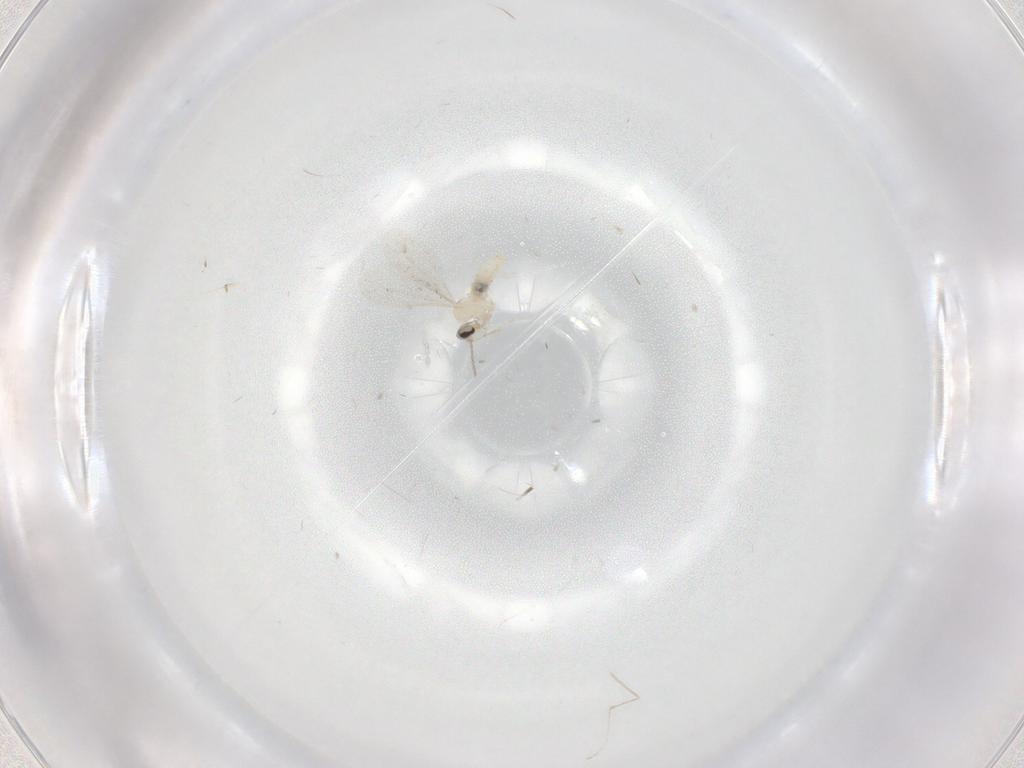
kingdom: Animalia
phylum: Arthropoda
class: Insecta
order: Diptera
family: Cecidomyiidae
